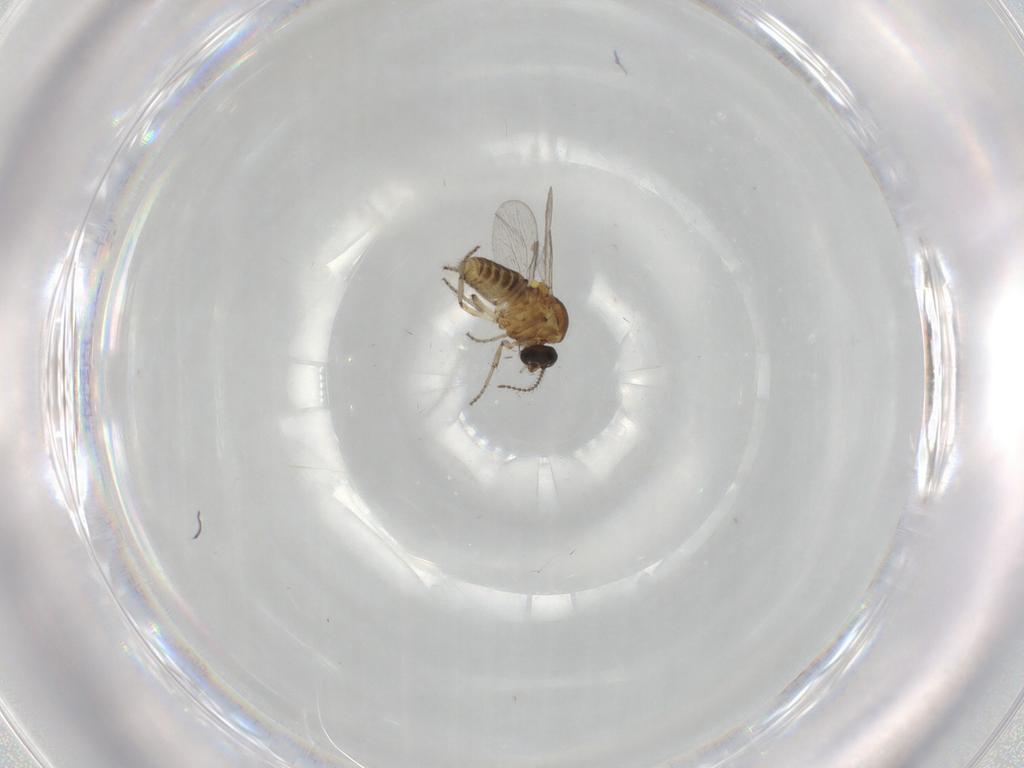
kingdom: Animalia
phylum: Arthropoda
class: Insecta
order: Diptera
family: Ceratopogonidae
